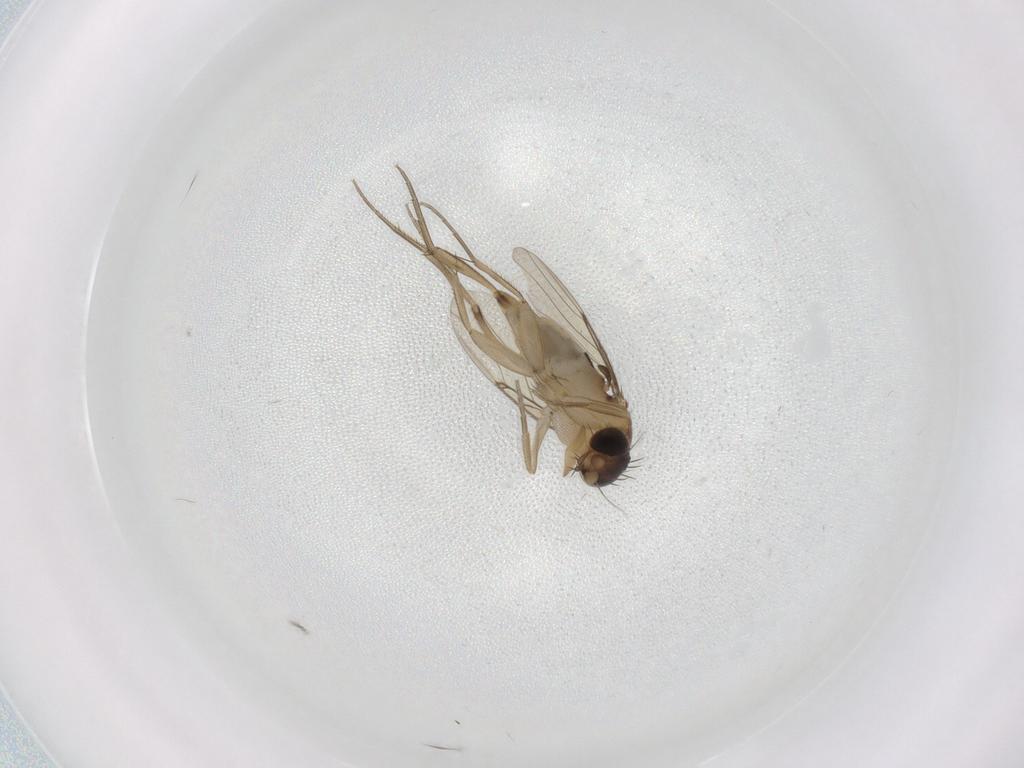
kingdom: Animalia
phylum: Arthropoda
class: Insecta
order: Diptera
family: Phoridae
